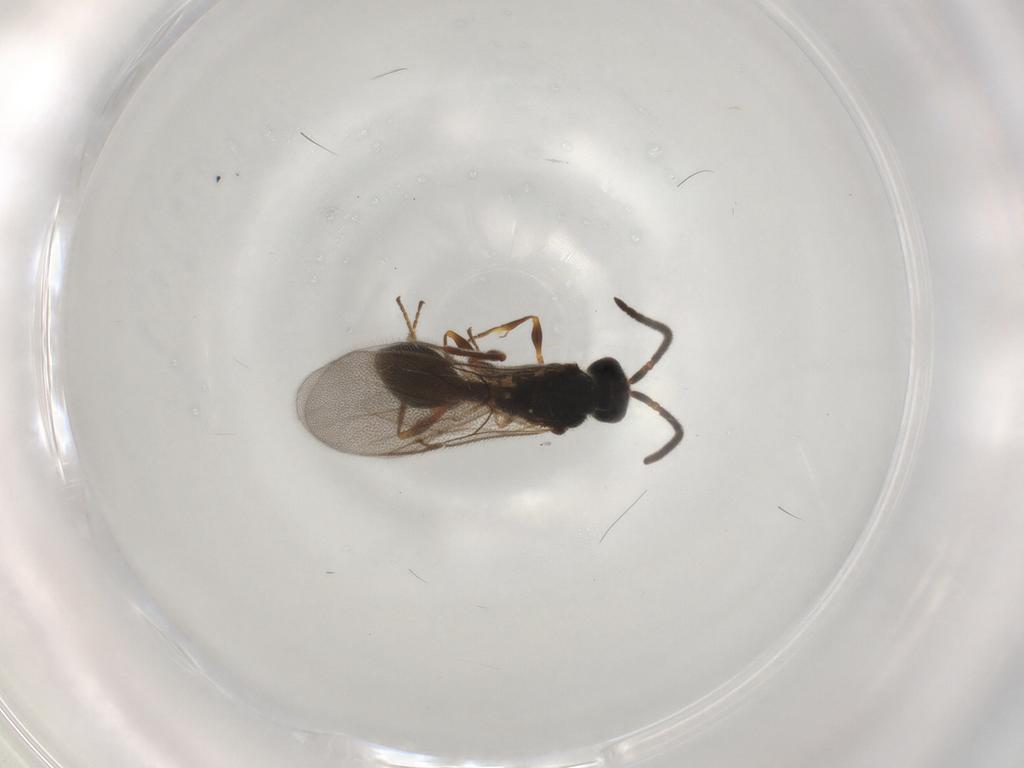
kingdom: Animalia
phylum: Arthropoda
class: Insecta
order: Hymenoptera
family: Diapriidae
